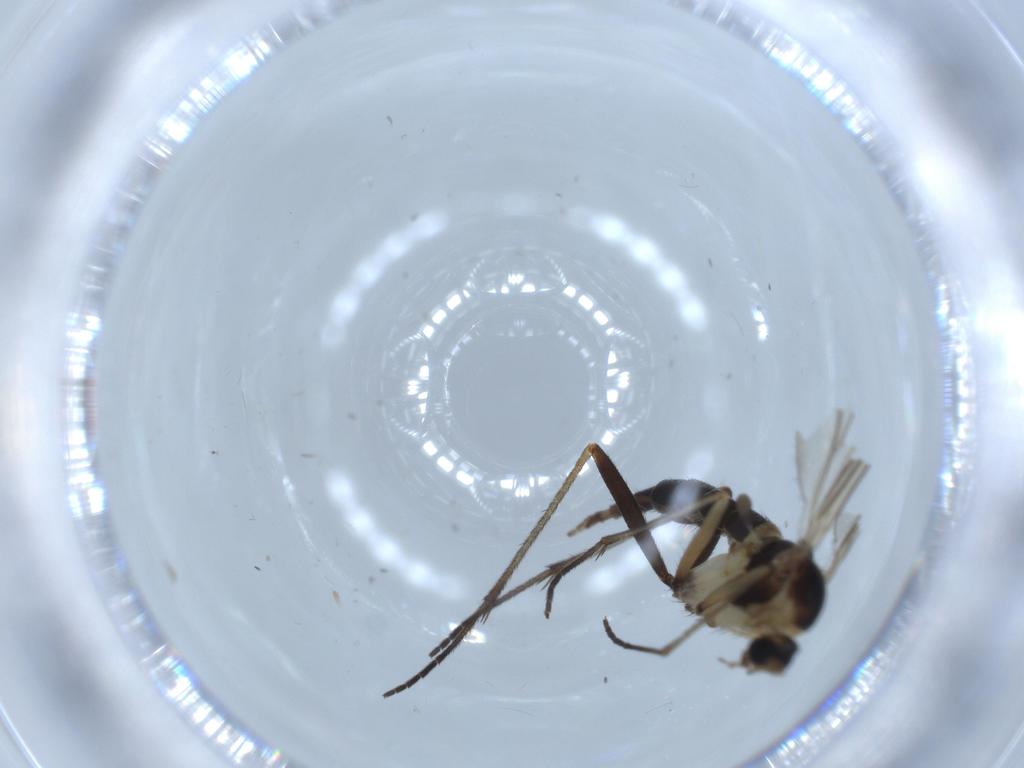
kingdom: Animalia
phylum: Arthropoda
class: Insecta
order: Diptera
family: Sciaridae
